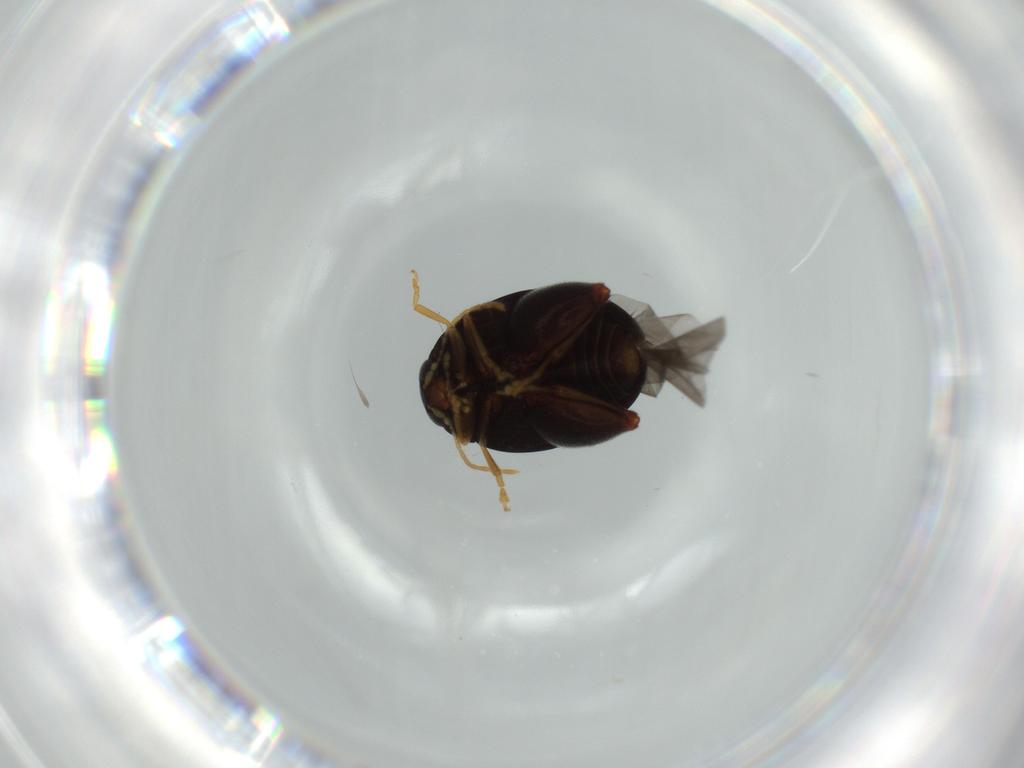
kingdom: Animalia
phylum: Arthropoda
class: Insecta
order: Coleoptera
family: Chrysomelidae
